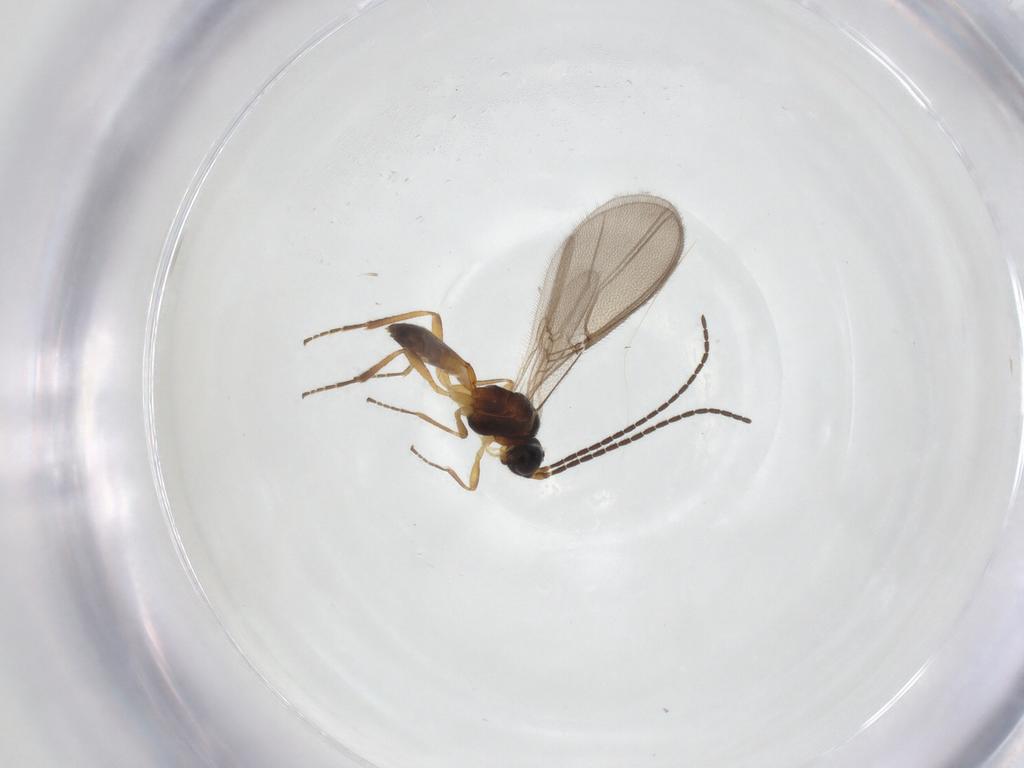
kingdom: Animalia
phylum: Arthropoda
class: Insecta
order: Hymenoptera
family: Braconidae
